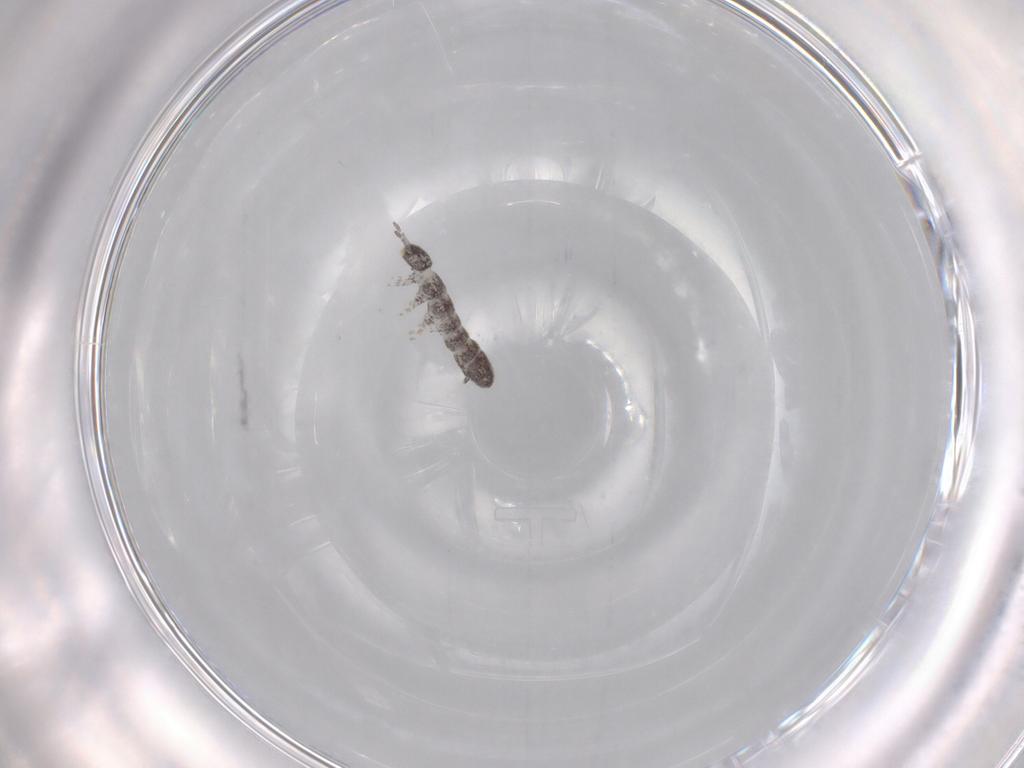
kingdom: Animalia
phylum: Arthropoda
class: Collembola
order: Entomobryomorpha
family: Isotomidae
